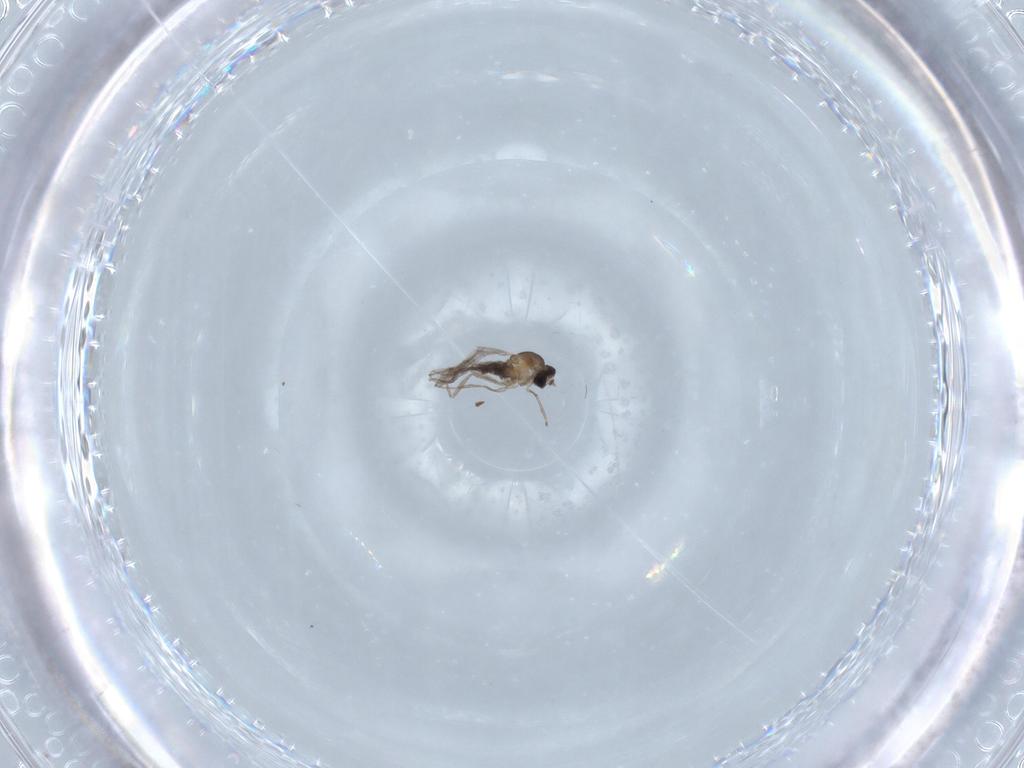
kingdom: Animalia
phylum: Arthropoda
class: Insecta
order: Diptera
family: Cecidomyiidae
